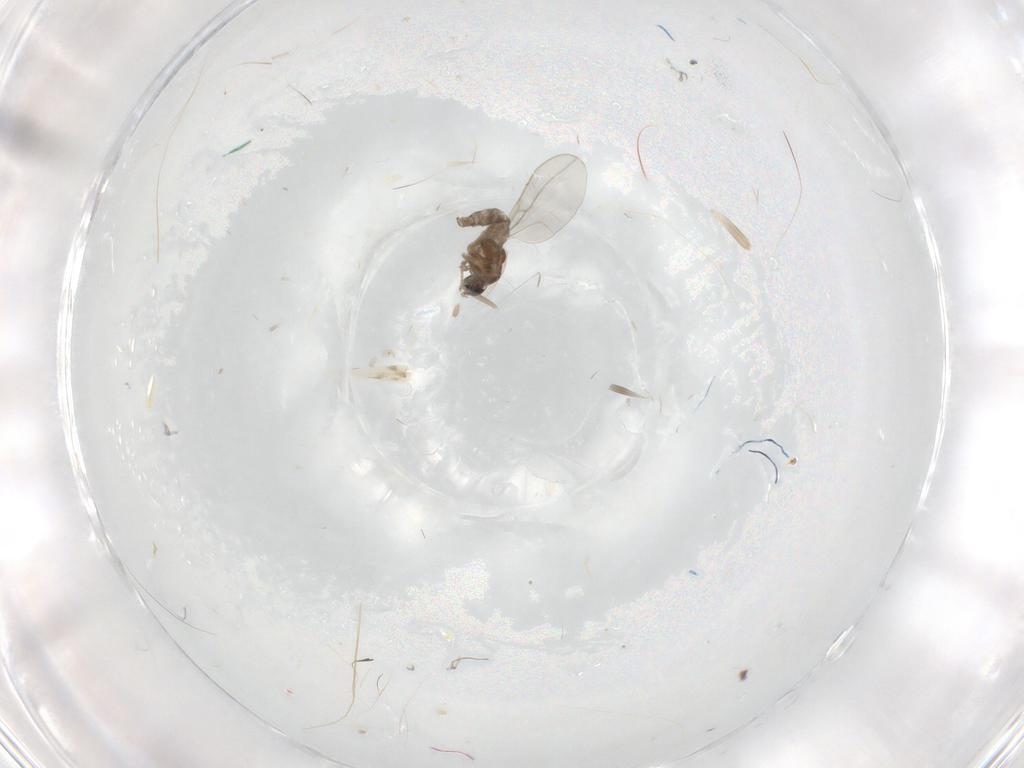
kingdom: Animalia
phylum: Arthropoda
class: Insecta
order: Diptera
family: Cecidomyiidae
